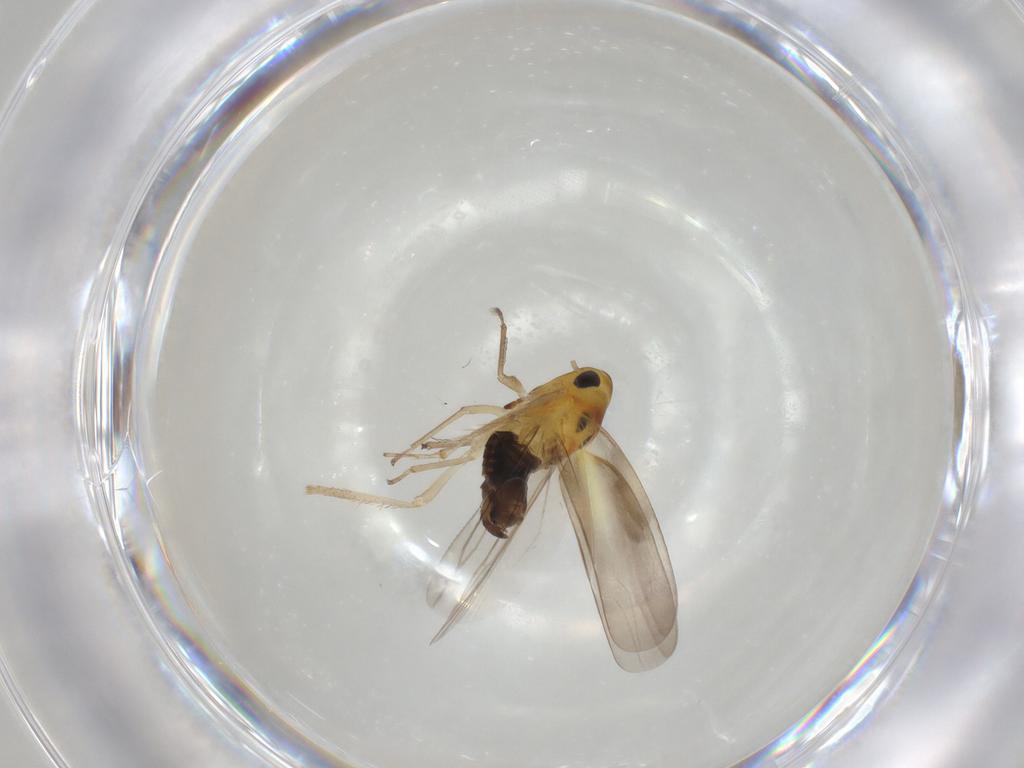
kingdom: Animalia
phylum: Arthropoda
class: Insecta
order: Hemiptera
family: Cicadellidae
